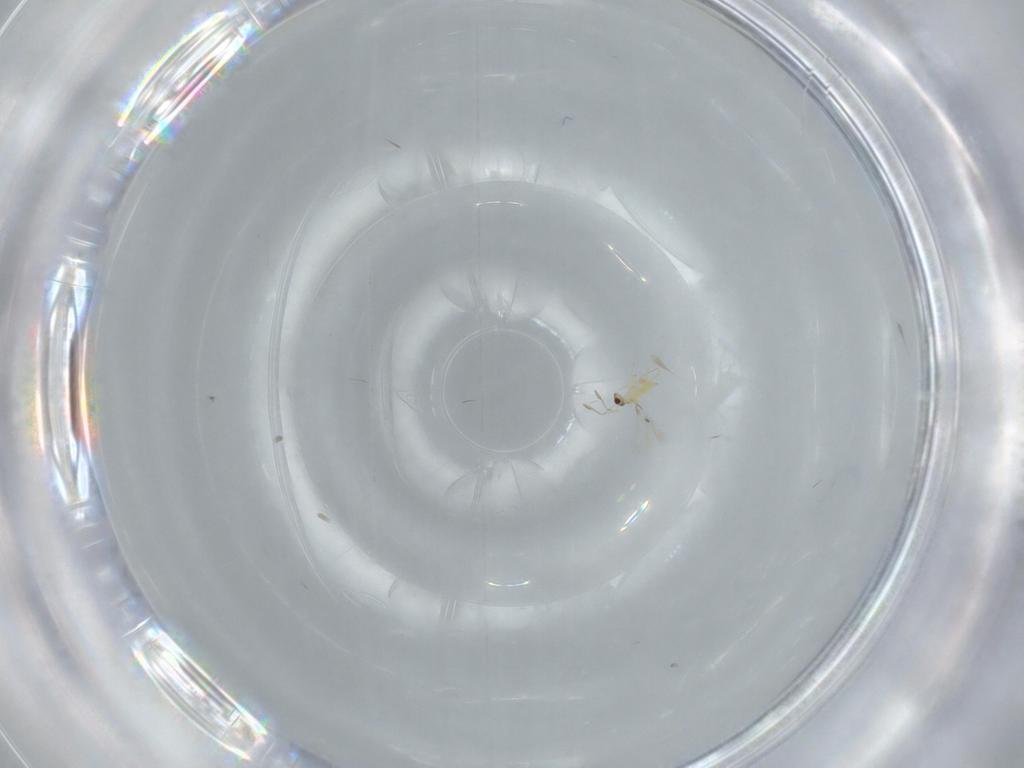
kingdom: Animalia
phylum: Arthropoda
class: Insecta
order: Hymenoptera
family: Mymaridae
